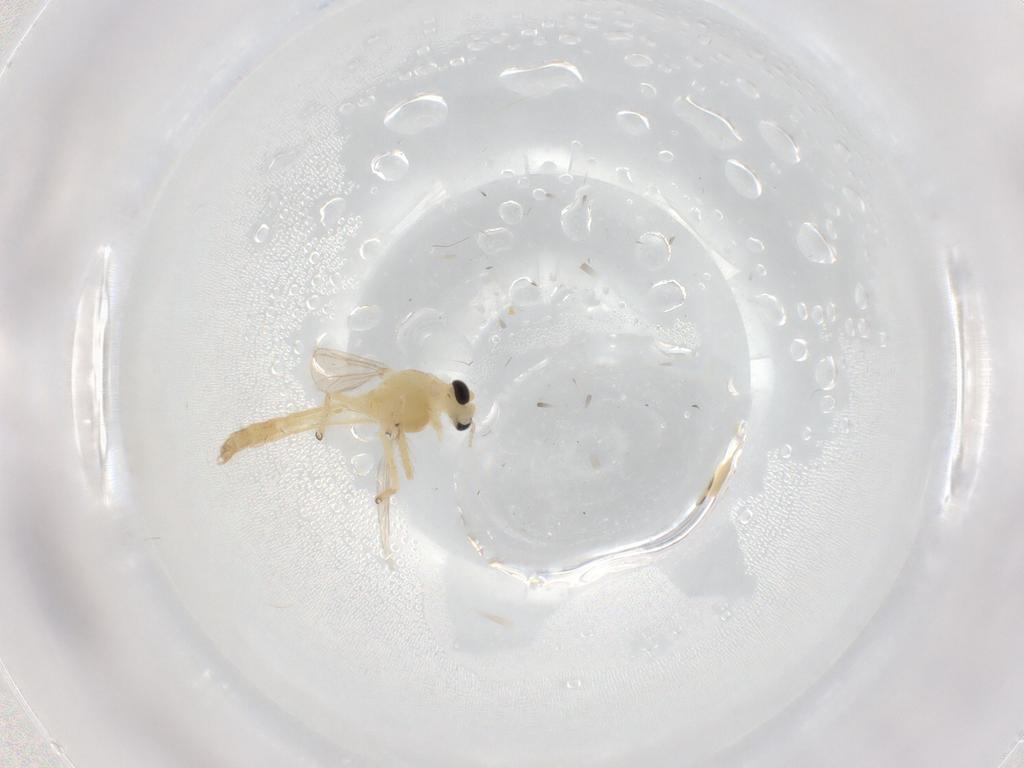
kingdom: Animalia
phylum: Arthropoda
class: Insecta
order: Diptera
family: Chironomidae
